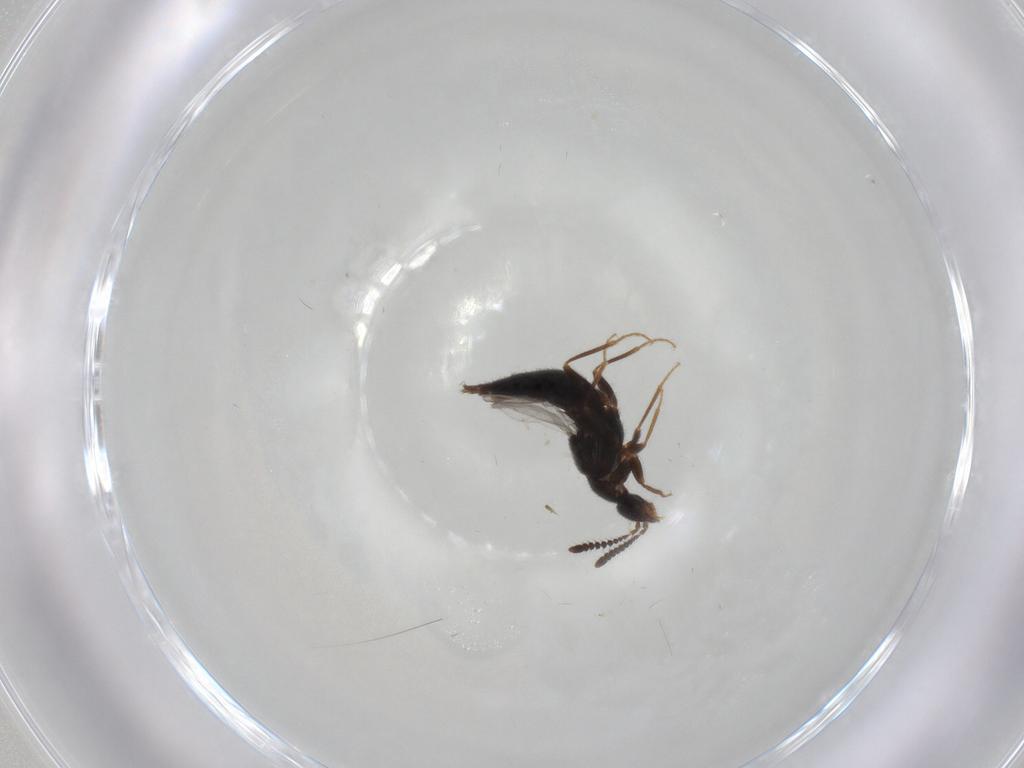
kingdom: Animalia
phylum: Arthropoda
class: Insecta
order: Coleoptera
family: Staphylinidae
